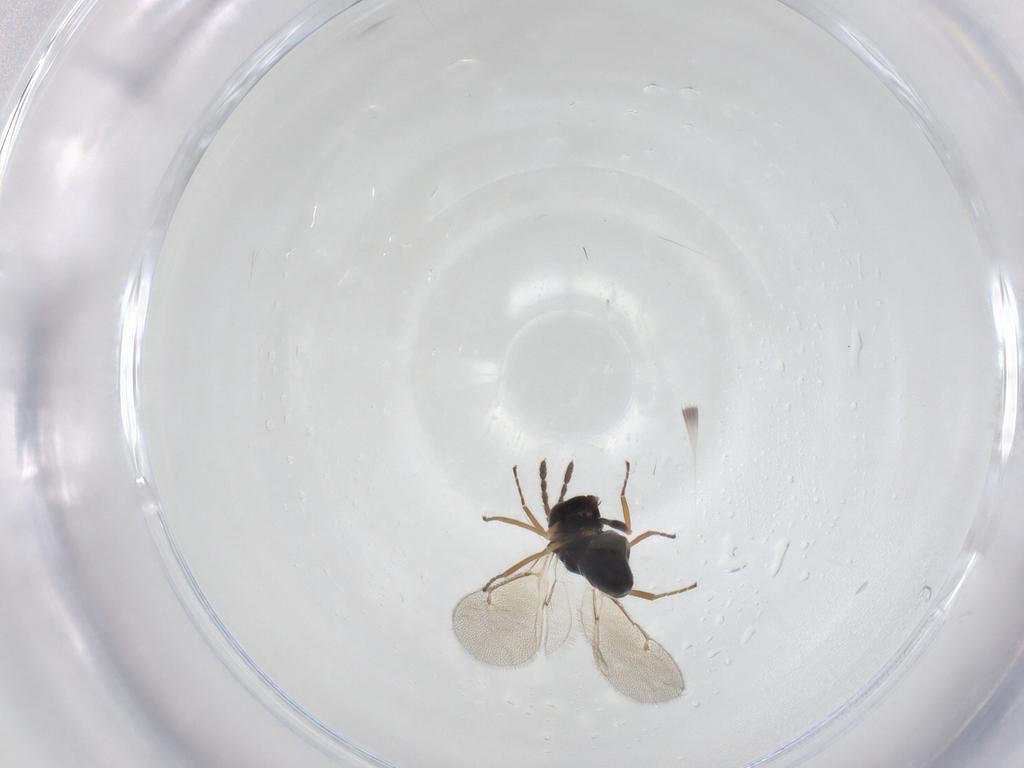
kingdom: Animalia
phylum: Arthropoda
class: Insecta
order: Hymenoptera
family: Eulophidae
